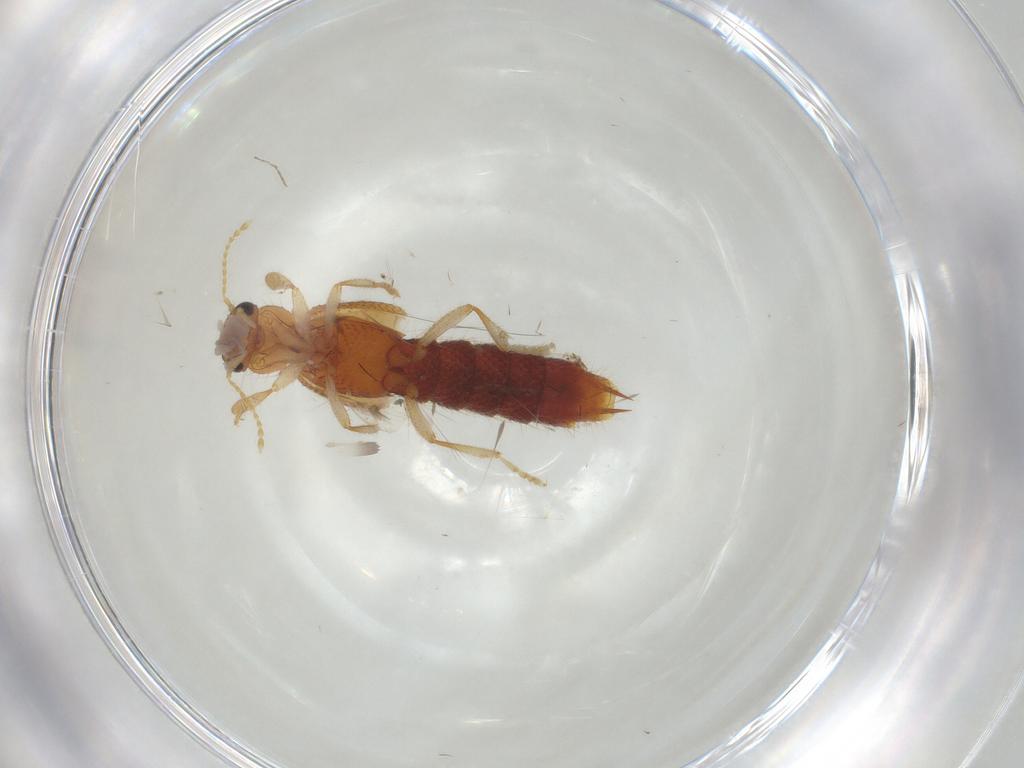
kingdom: Animalia
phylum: Arthropoda
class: Insecta
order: Coleoptera
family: Staphylinidae
